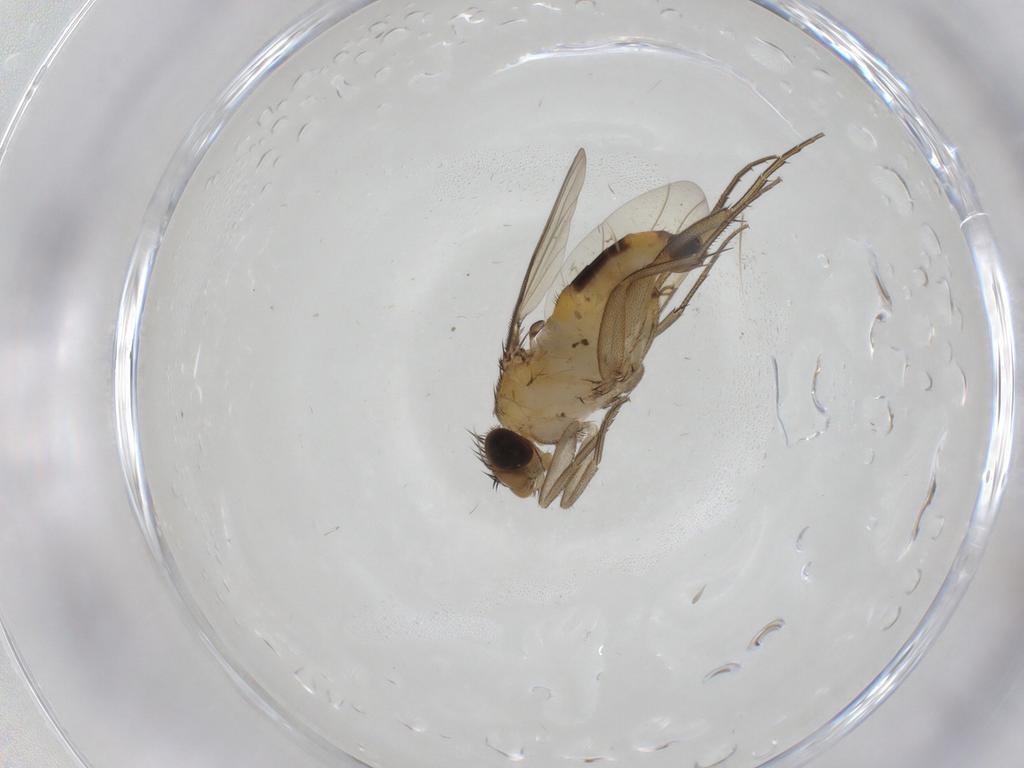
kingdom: Animalia
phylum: Arthropoda
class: Insecta
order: Diptera
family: Phoridae
